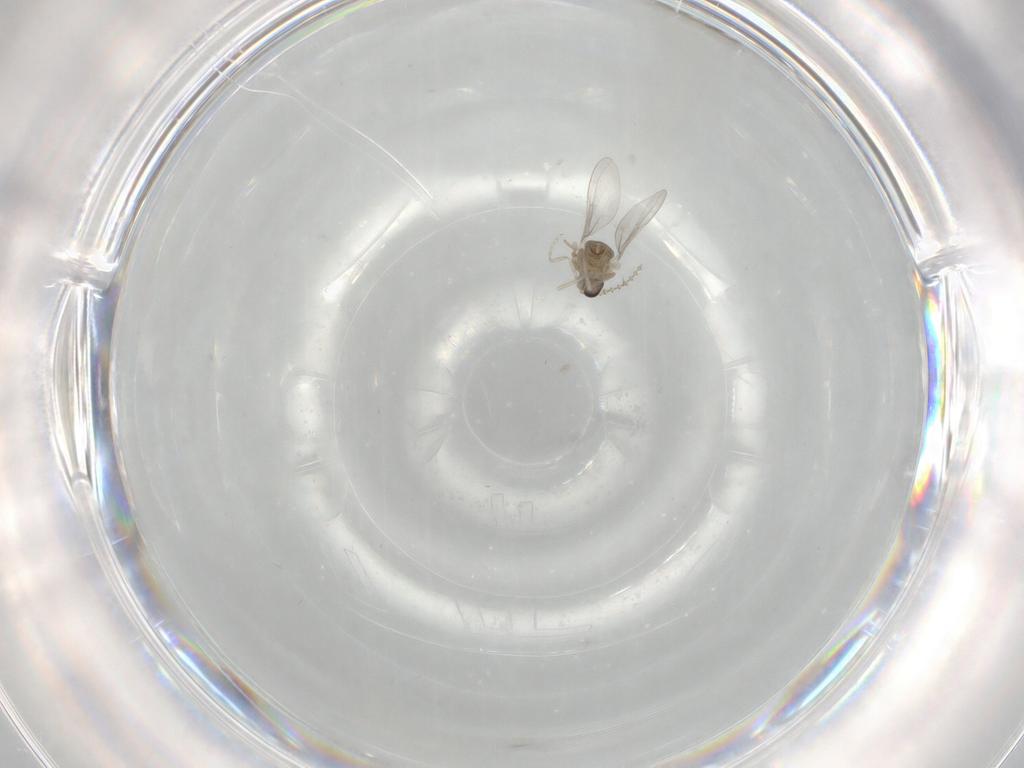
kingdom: Animalia
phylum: Arthropoda
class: Insecta
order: Diptera
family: Cecidomyiidae
